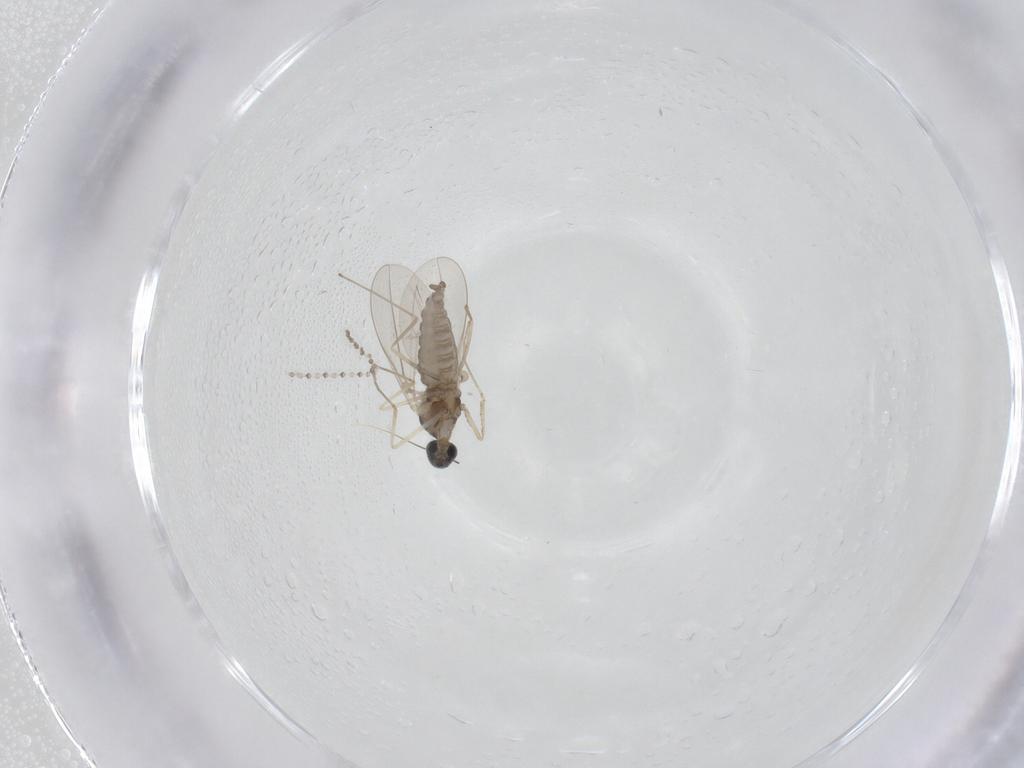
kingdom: Animalia
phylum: Arthropoda
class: Insecta
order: Diptera
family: Cecidomyiidae
